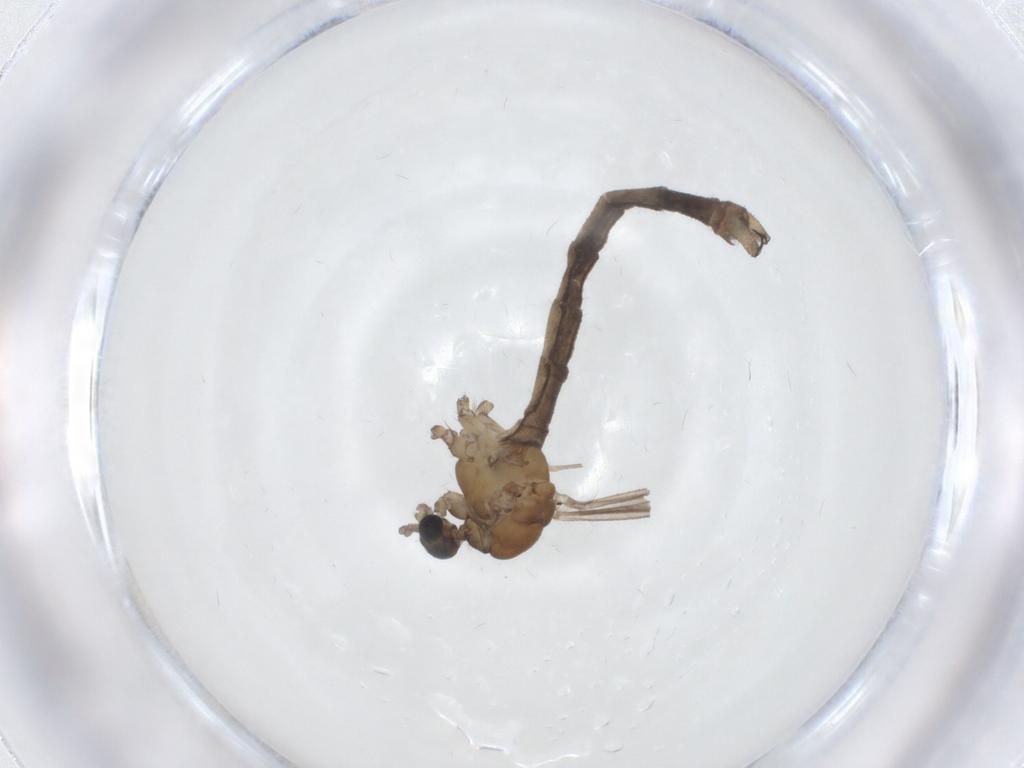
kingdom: Animalia
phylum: Arthropoda
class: Insecta
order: Diptera
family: Limoniidae
